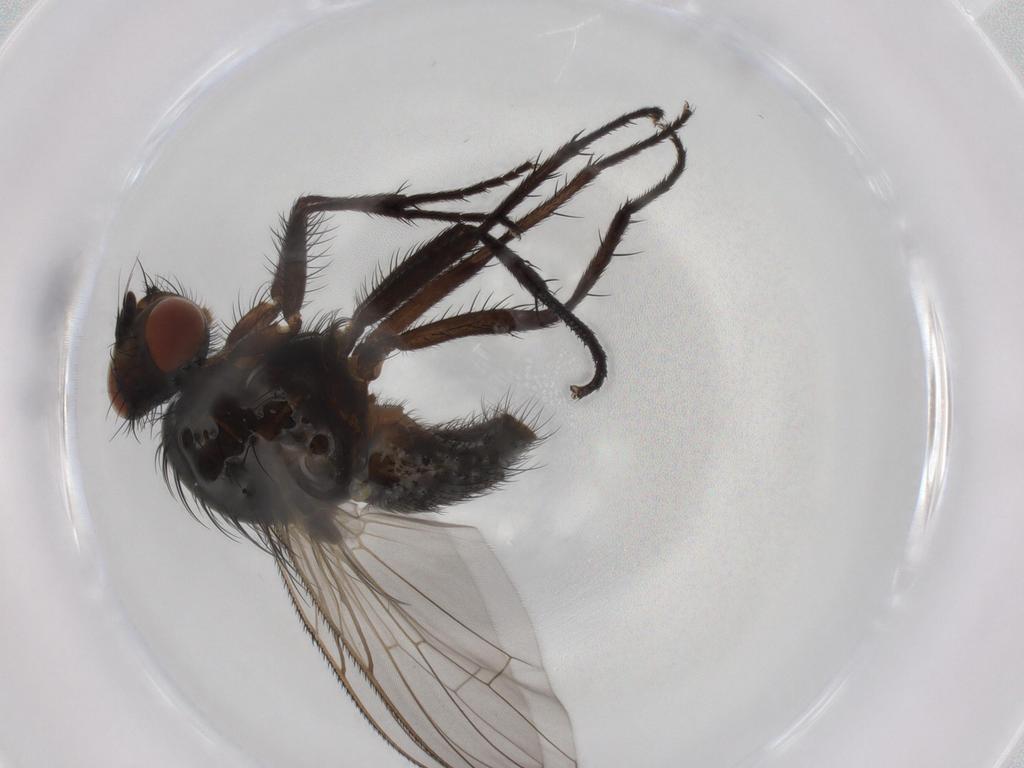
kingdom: Animalia
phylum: Arthropoda
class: Insecta
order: Diptera
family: Anthomyiidae
